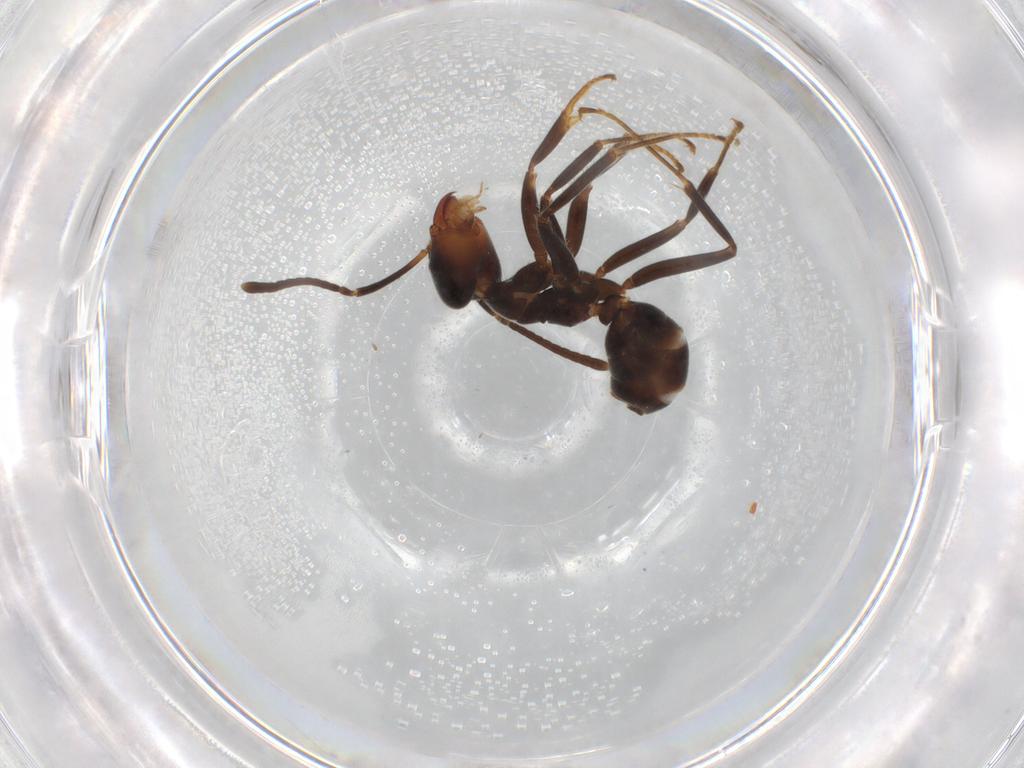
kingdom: Animalia
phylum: Arthropoda
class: Insecta
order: Hymenoptera
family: Formicidae
